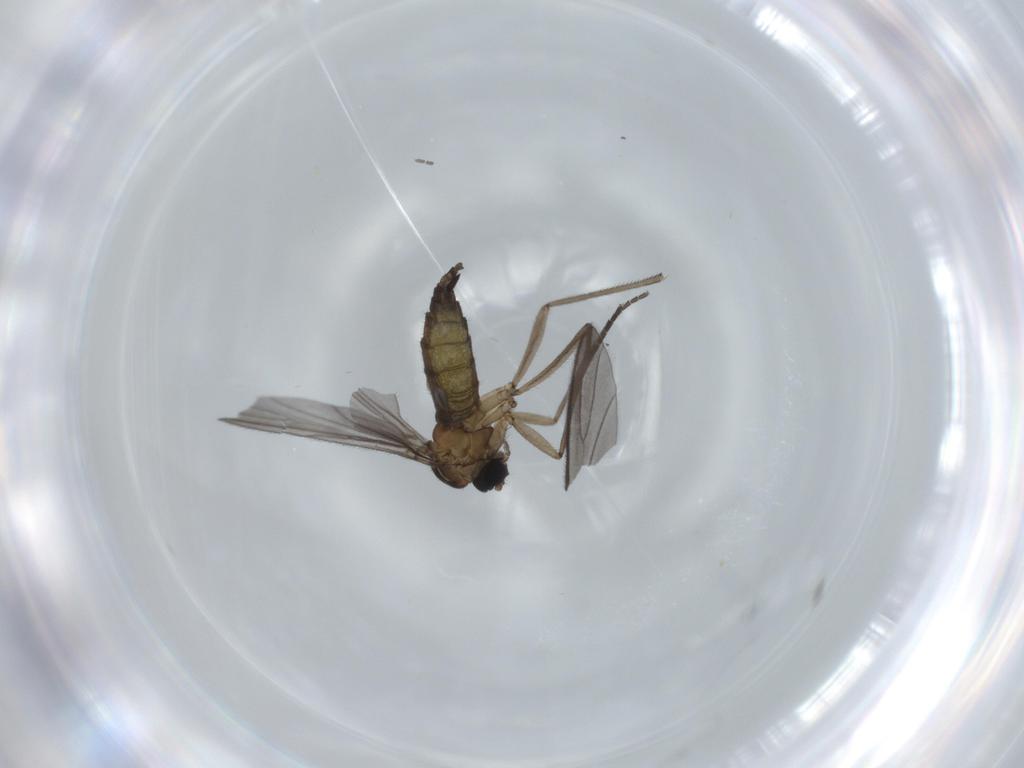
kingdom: Animalia
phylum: Arthropoda
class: Insecta
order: Diptera
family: Sciaridae
